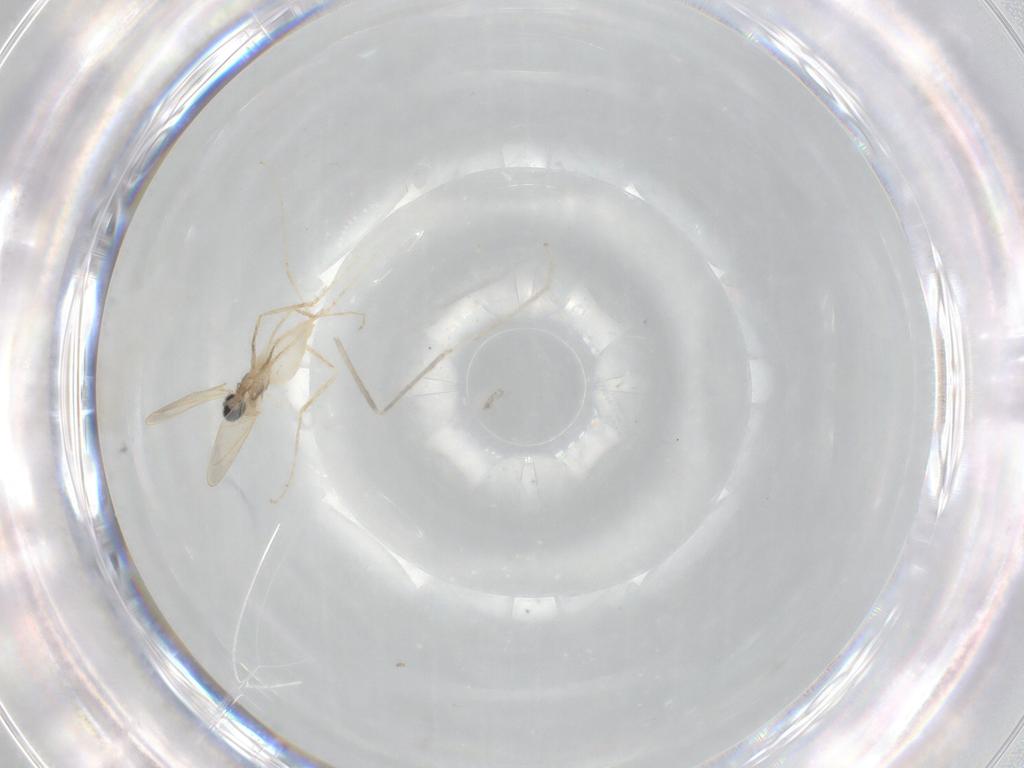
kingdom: Animalia
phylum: Arthropoda
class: Insecta
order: Diptera
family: Cecidomyiidae
